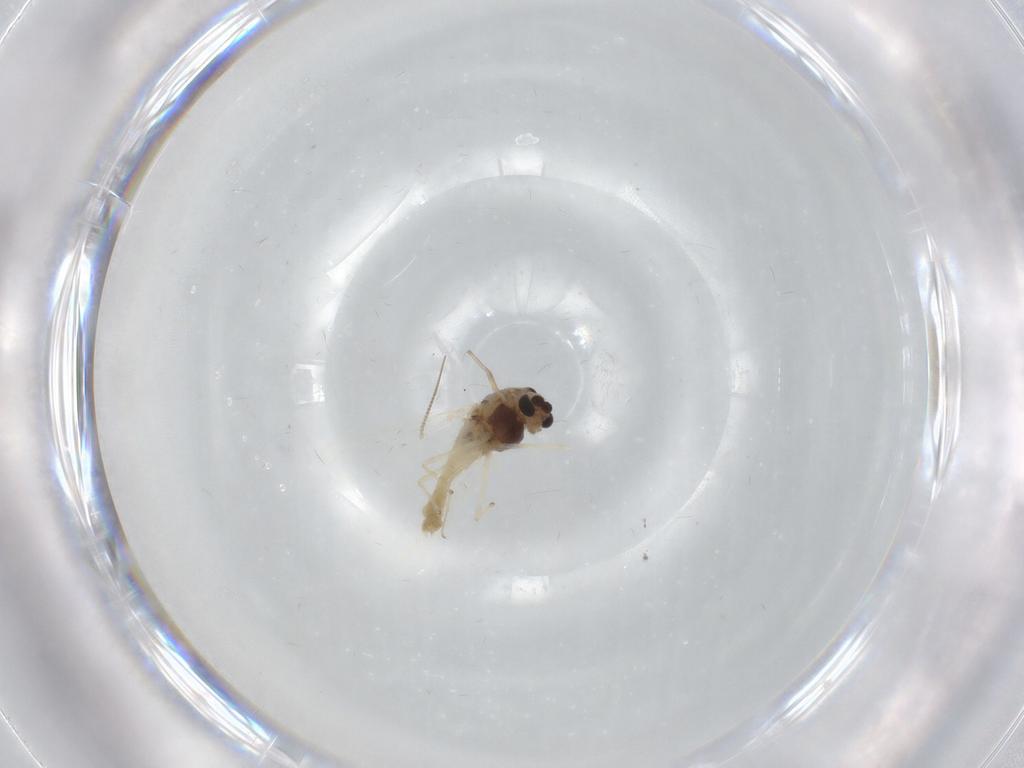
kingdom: Animalia
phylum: Arthropoda
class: Insecta
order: Diptera
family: Chironomidae
